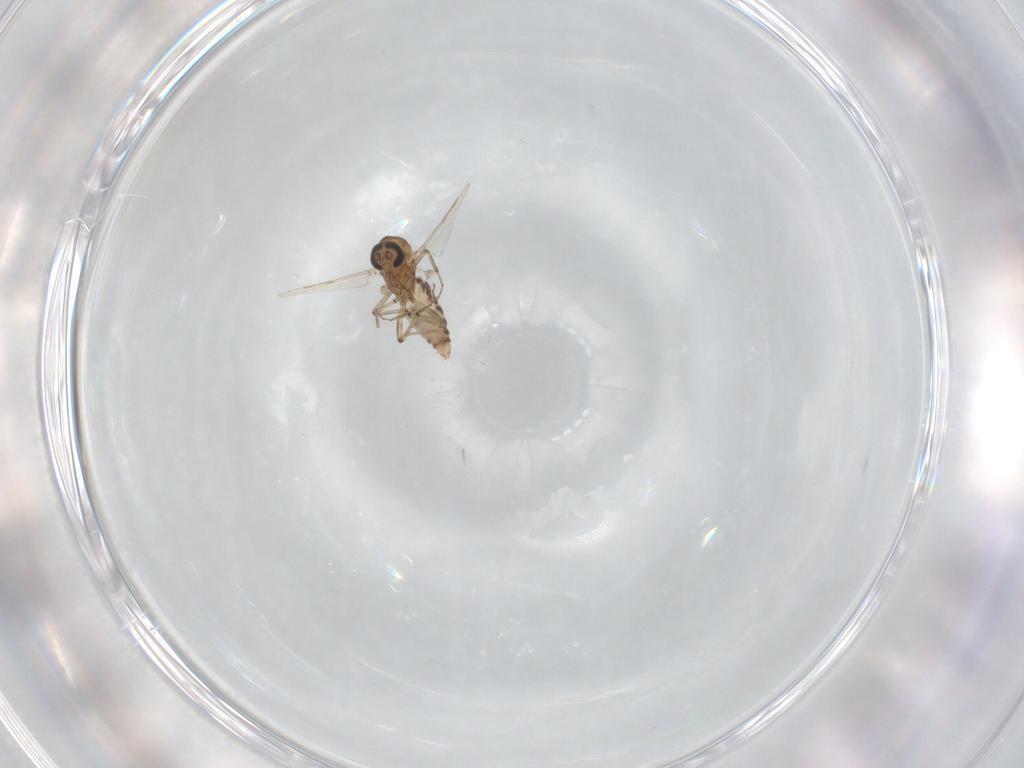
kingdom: Animalia
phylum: Arthropoda
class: Insecta
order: Diptera
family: Ceratopogonidae
